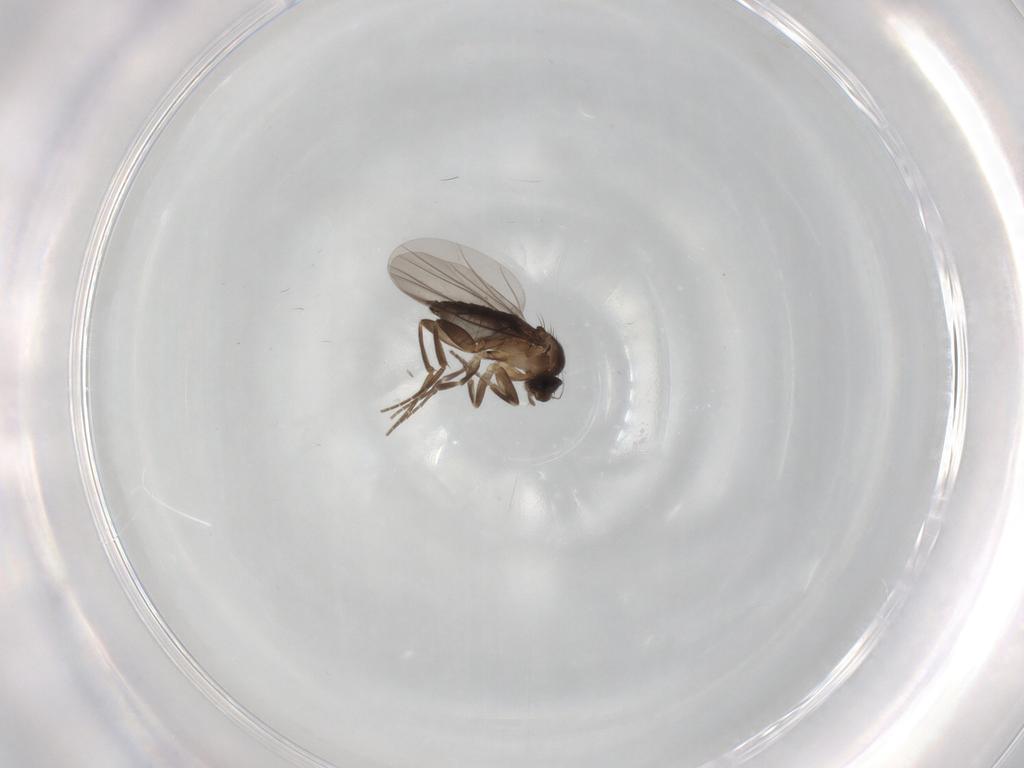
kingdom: Animalia
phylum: Arthropoda
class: Insecta
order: Diptera
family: Phoridae
